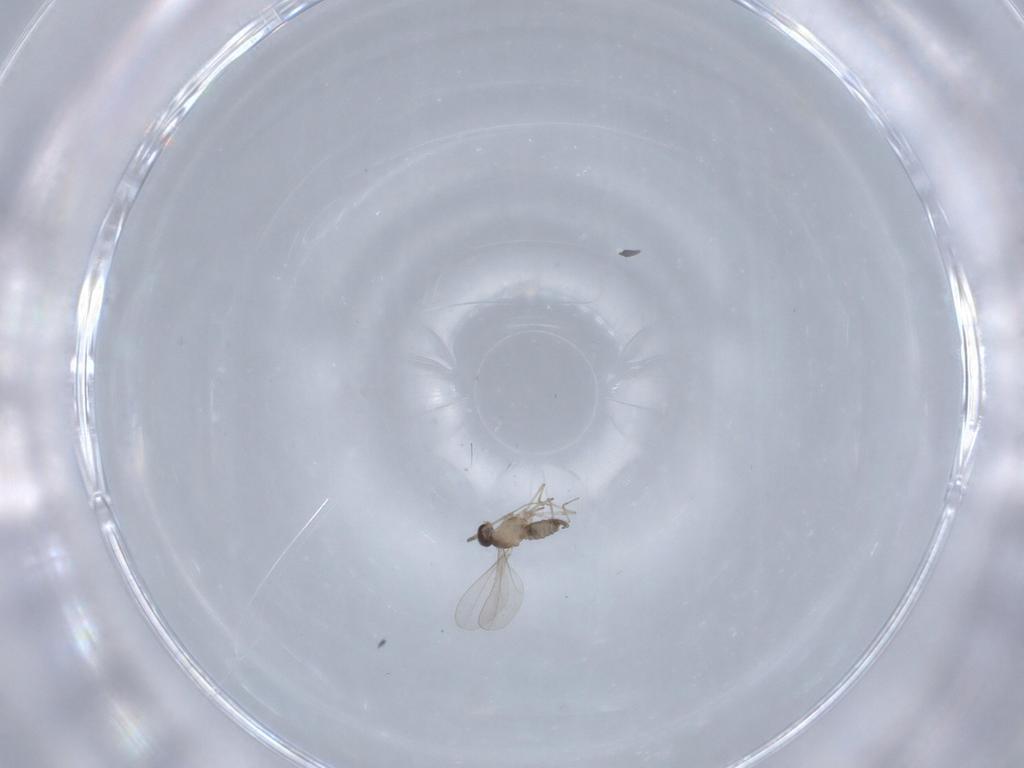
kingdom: Animalia
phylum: Arthropoda
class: Insecta
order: Diptera
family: Cecidomyiidae
